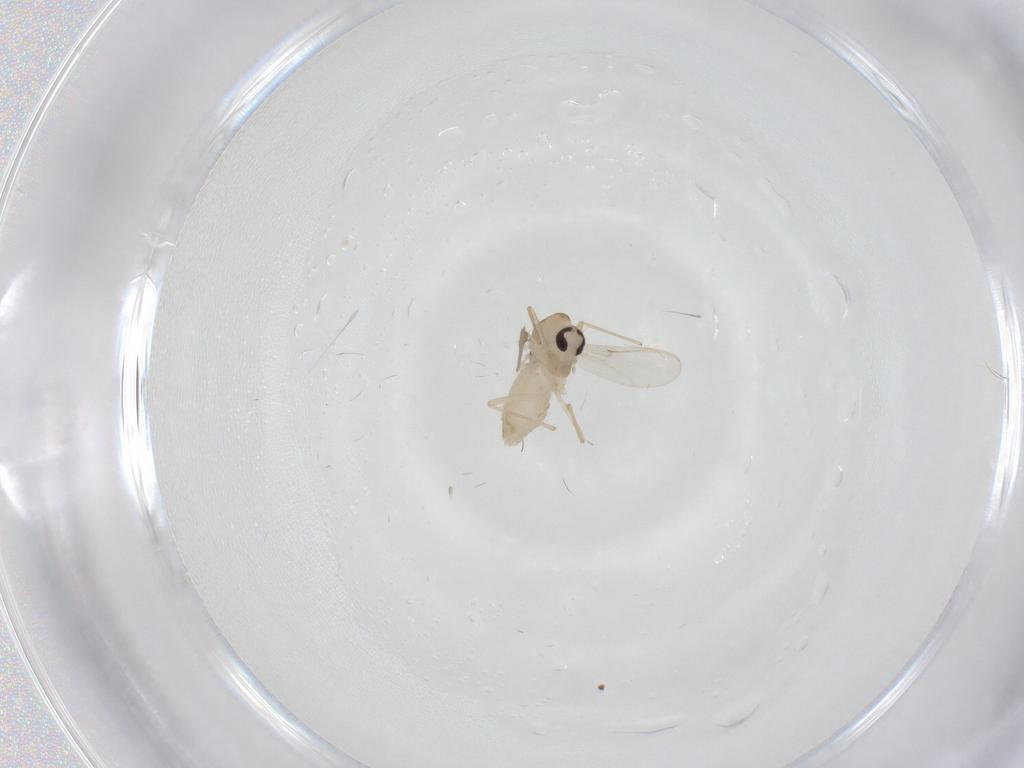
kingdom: Animalia
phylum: Arthropoda
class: Insecta
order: Diptera
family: Chironomidae
